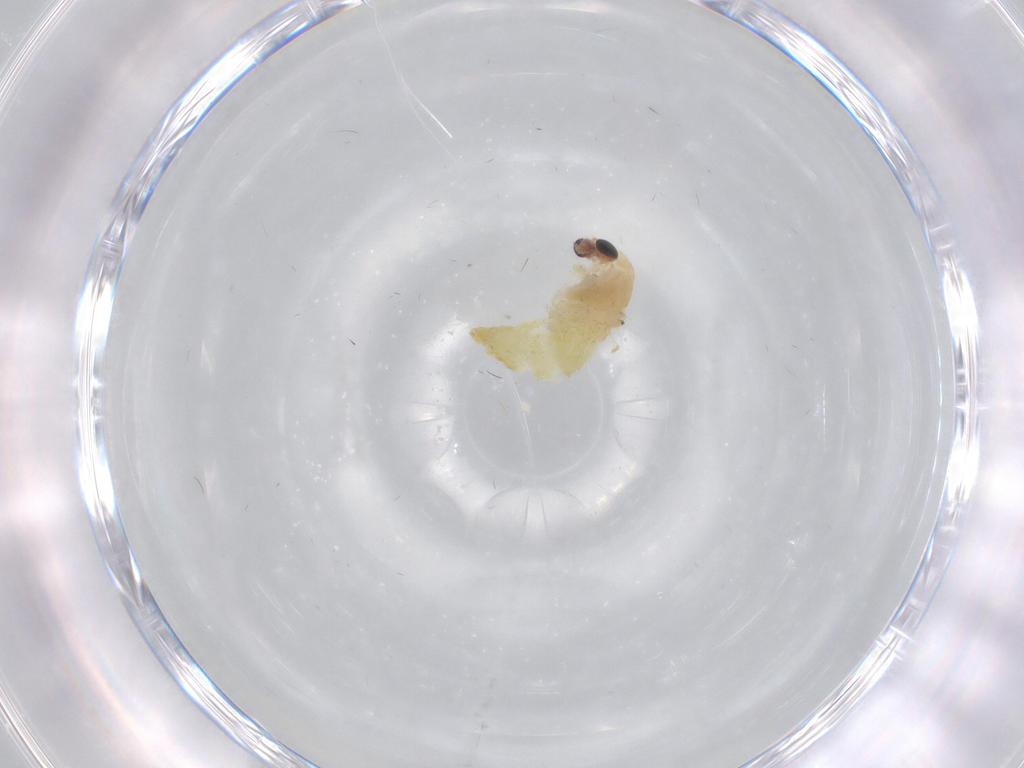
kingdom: Animalia
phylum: Arthropoda
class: Insecta
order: Diptera
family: Chironomidae
